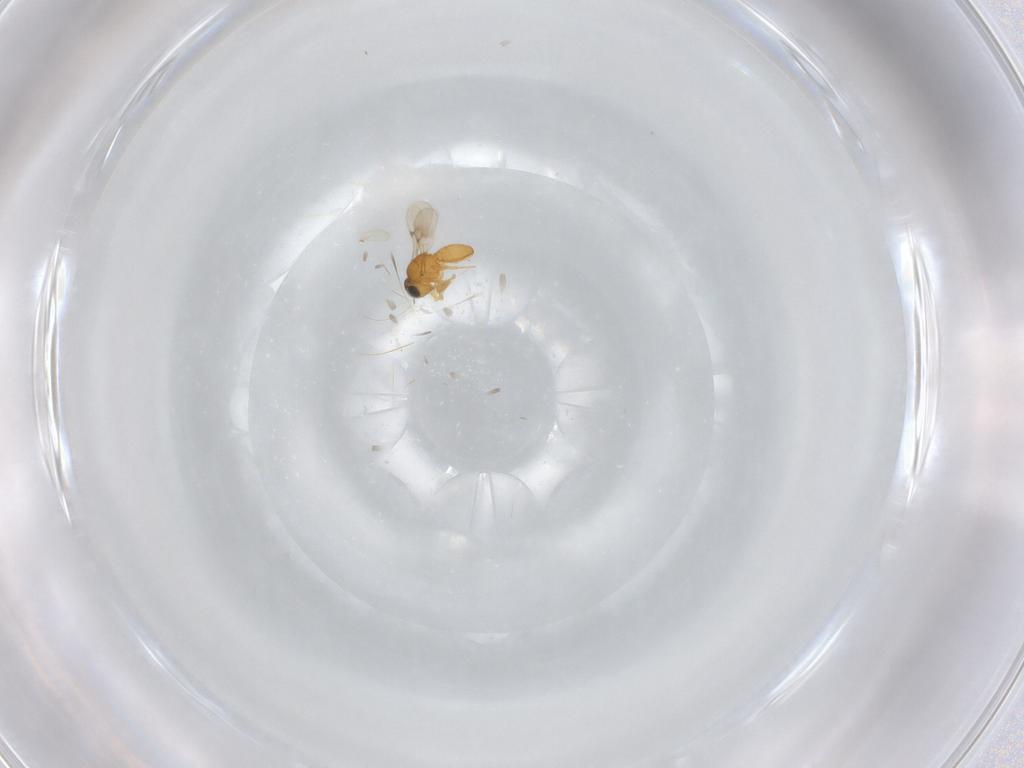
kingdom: Animalia
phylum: Arthropoda
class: Insecta
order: Hymenoptera
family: Scelionidae
